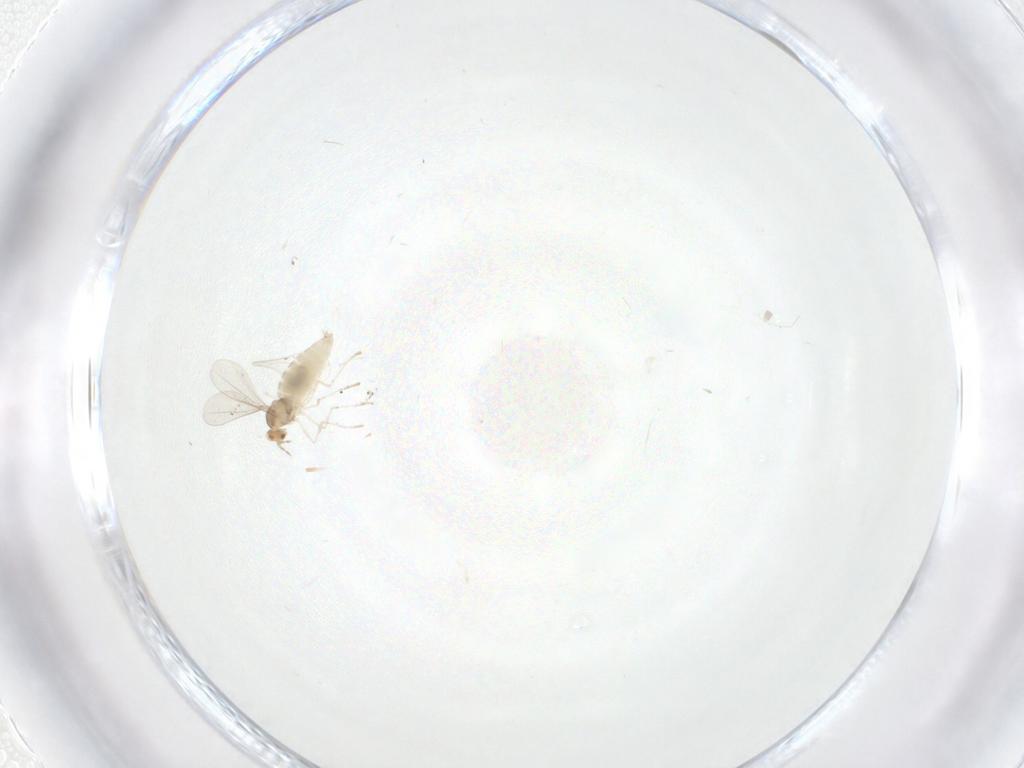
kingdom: Animalia
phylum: Arthropoda
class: Insecta
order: Diptera
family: Cecidomyiidae
